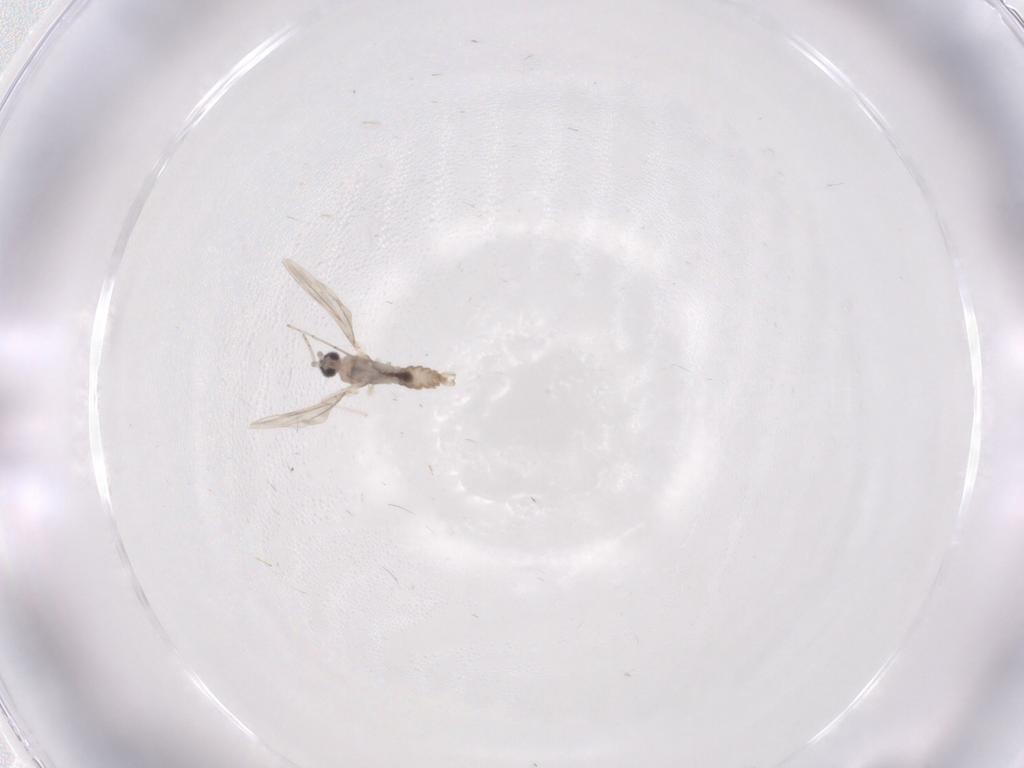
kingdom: Animalia
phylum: Arthropoda
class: Insecta
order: Diptera
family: Cecidomyiidae
